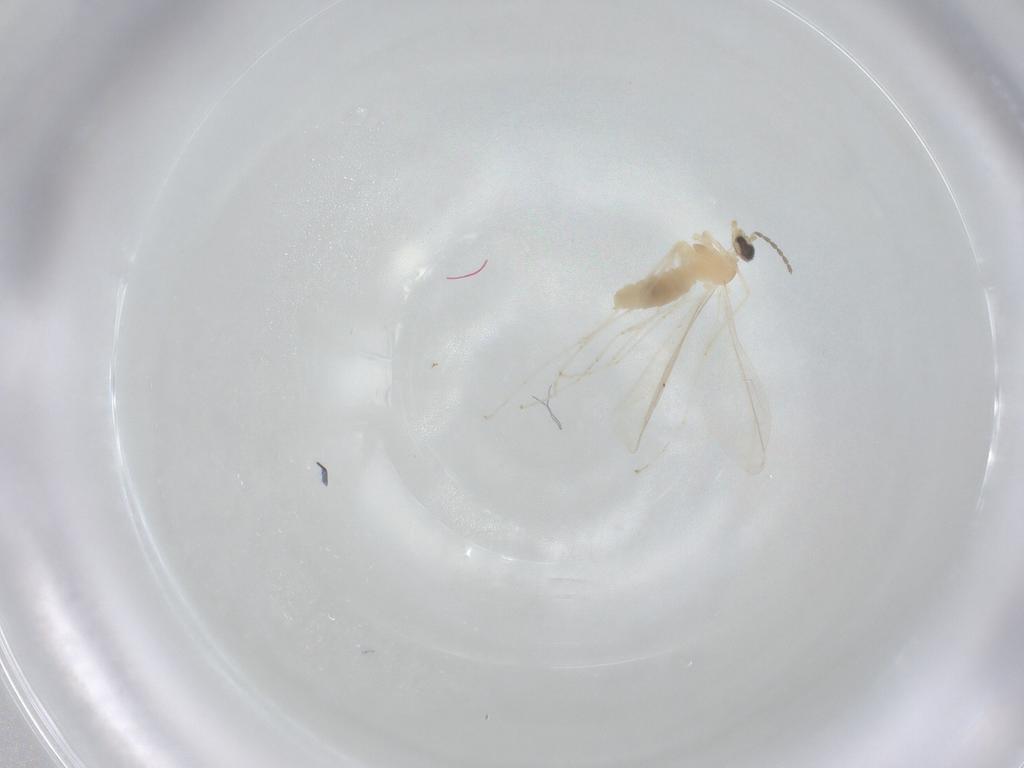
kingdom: Animalia
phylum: Arthropoda
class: Insecta
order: Diptera
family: Cecidomyiidae
